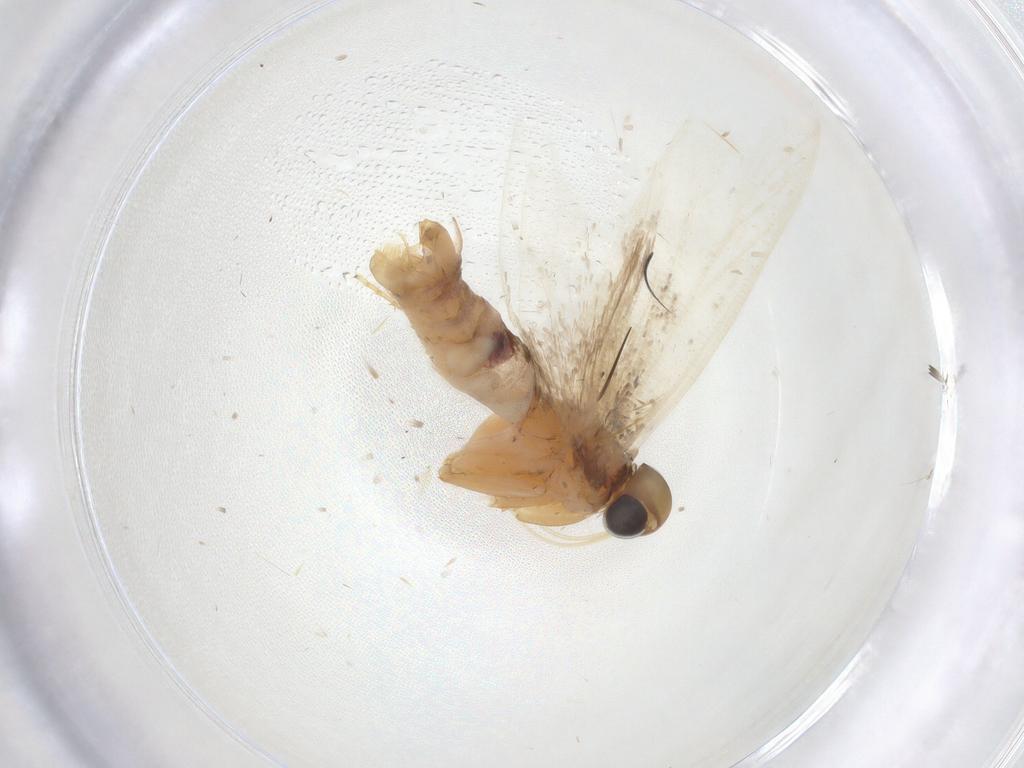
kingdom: Animalia
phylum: Arthropoda
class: Insecta
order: Lepidoptera
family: Gelechiidae
